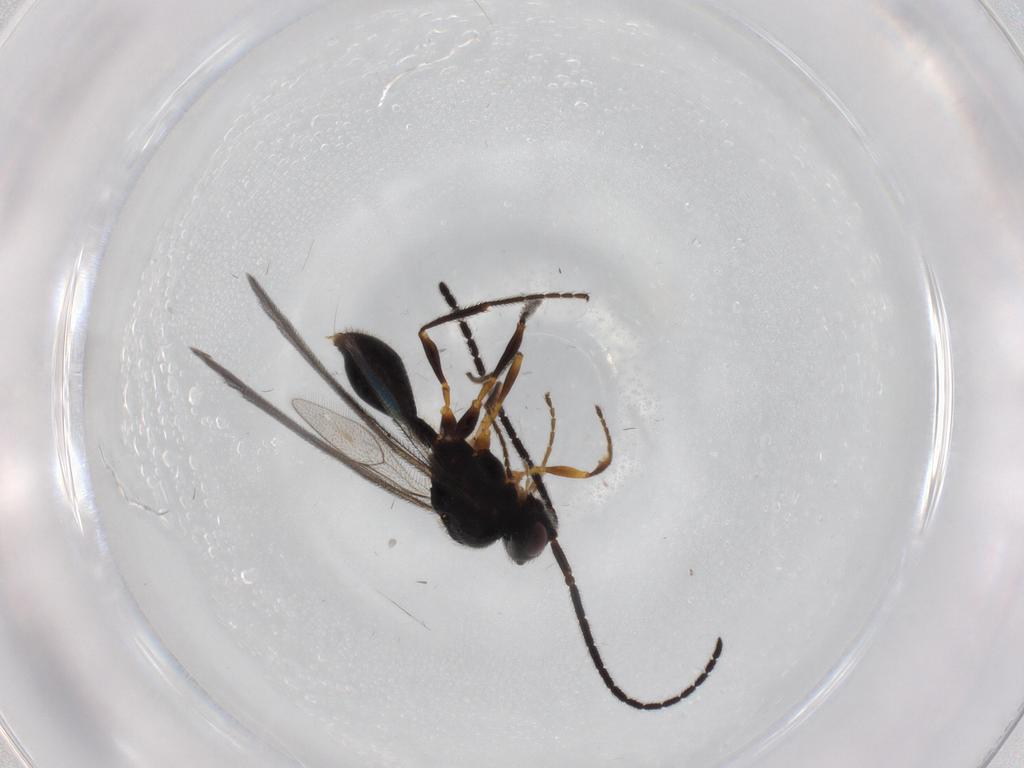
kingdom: Animalia
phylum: Arthropoda
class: Insecta
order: Hymenoptera
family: Diapriidae
